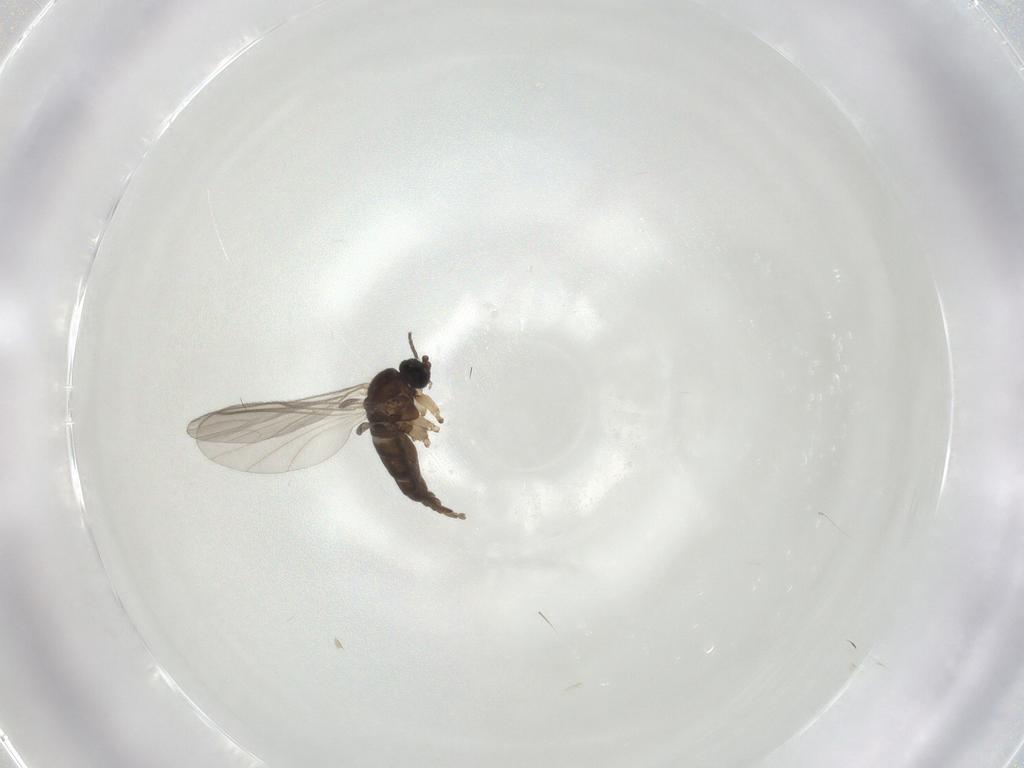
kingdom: Animalia
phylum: Arthropoda
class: Insecta
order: Diptera
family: Sciaridae
